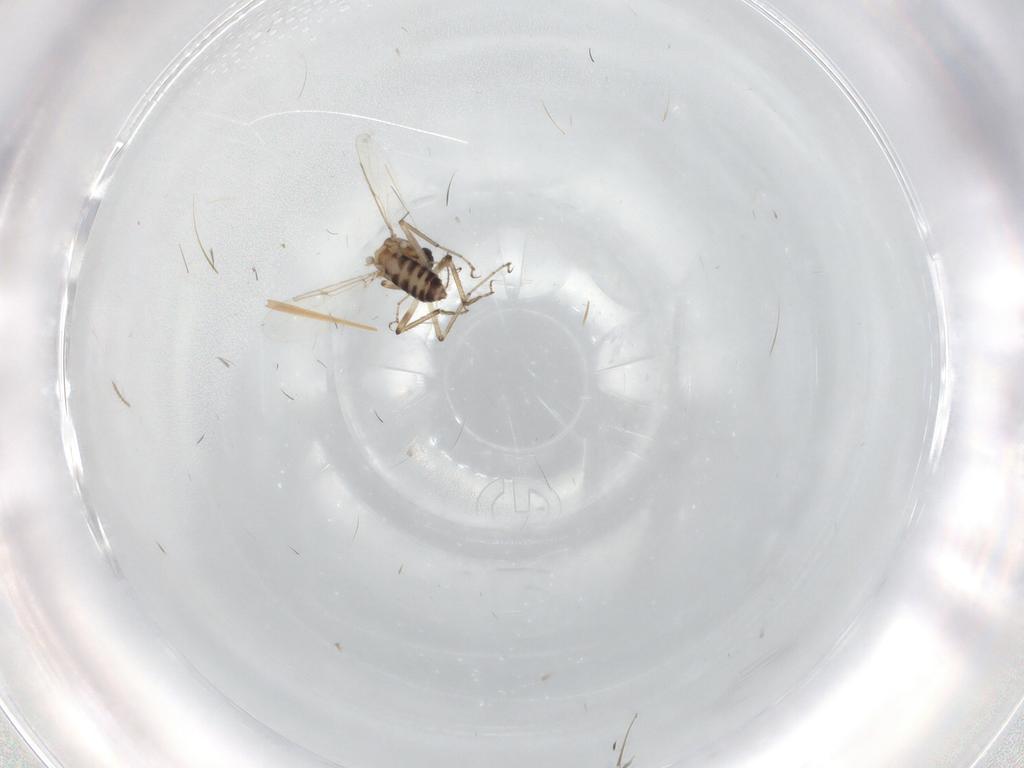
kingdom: Animalia
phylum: Arthropoda
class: Insecta
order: Diptera
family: Ceratopogonidae
